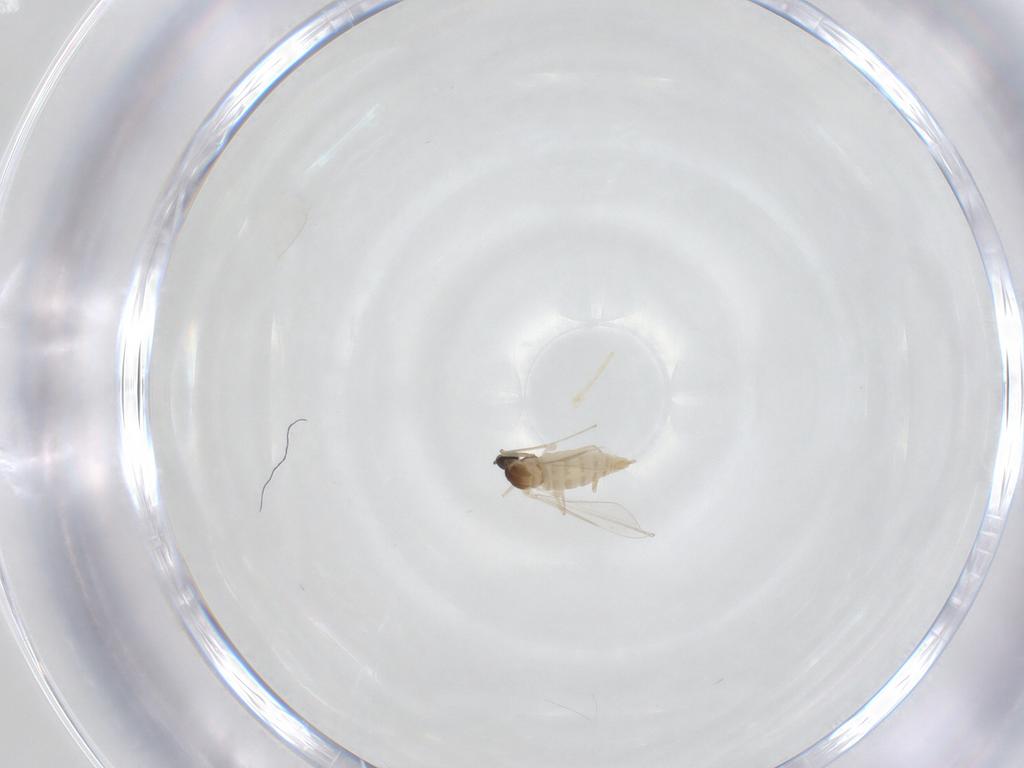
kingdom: Animalia
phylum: Arthropoda
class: Insecta
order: Diptera
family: Cecidomyiidae
